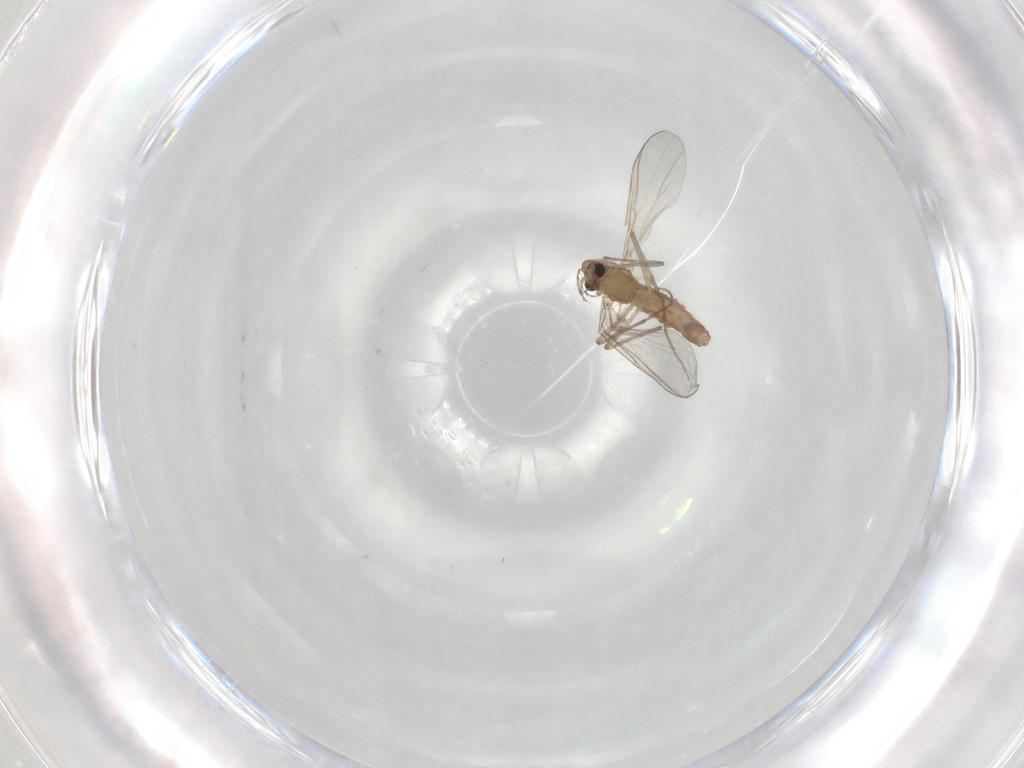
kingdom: Animalia
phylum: Arthropoda
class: Insecta
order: Diptera
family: Chironomidae
